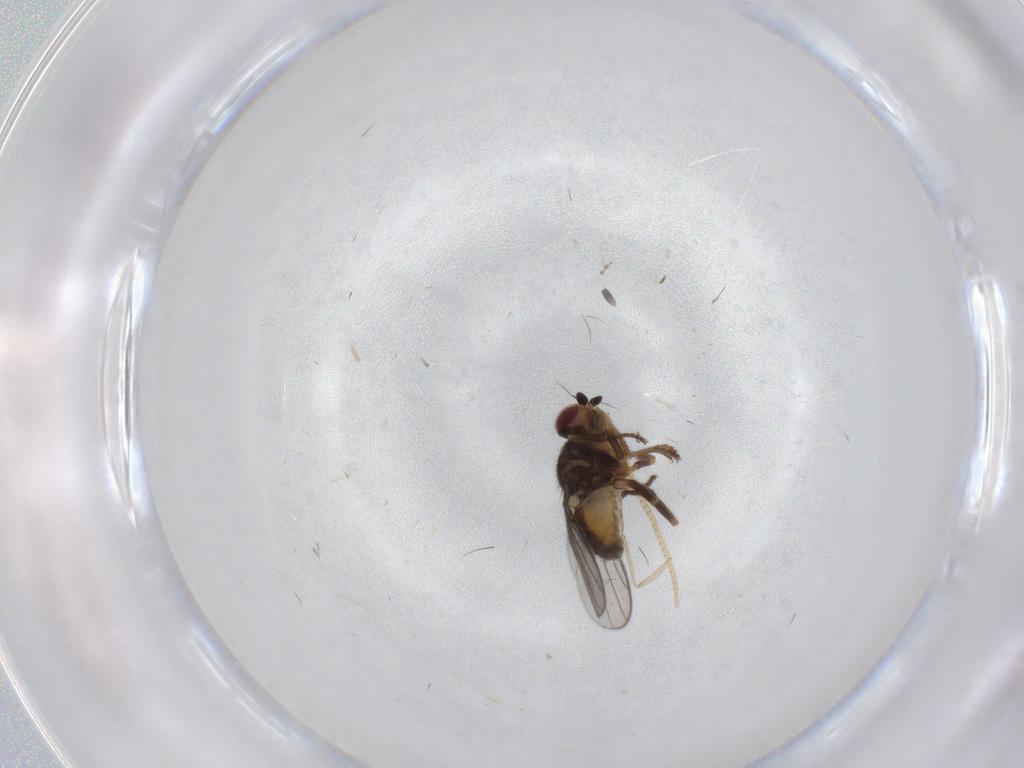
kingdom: Animalia
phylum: Arthropoda
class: Insecta
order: Diptera
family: Chloropidae
